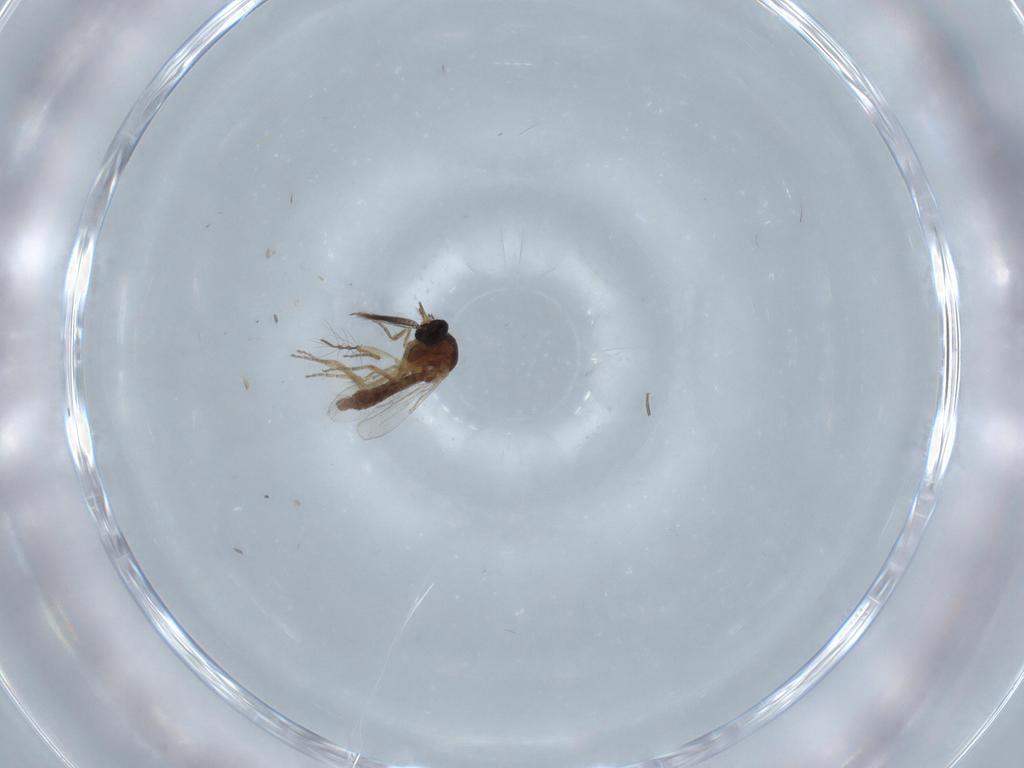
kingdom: Animalia
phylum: Arthropoda
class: Insecta
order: Diptera
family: Ceratopogonidae
